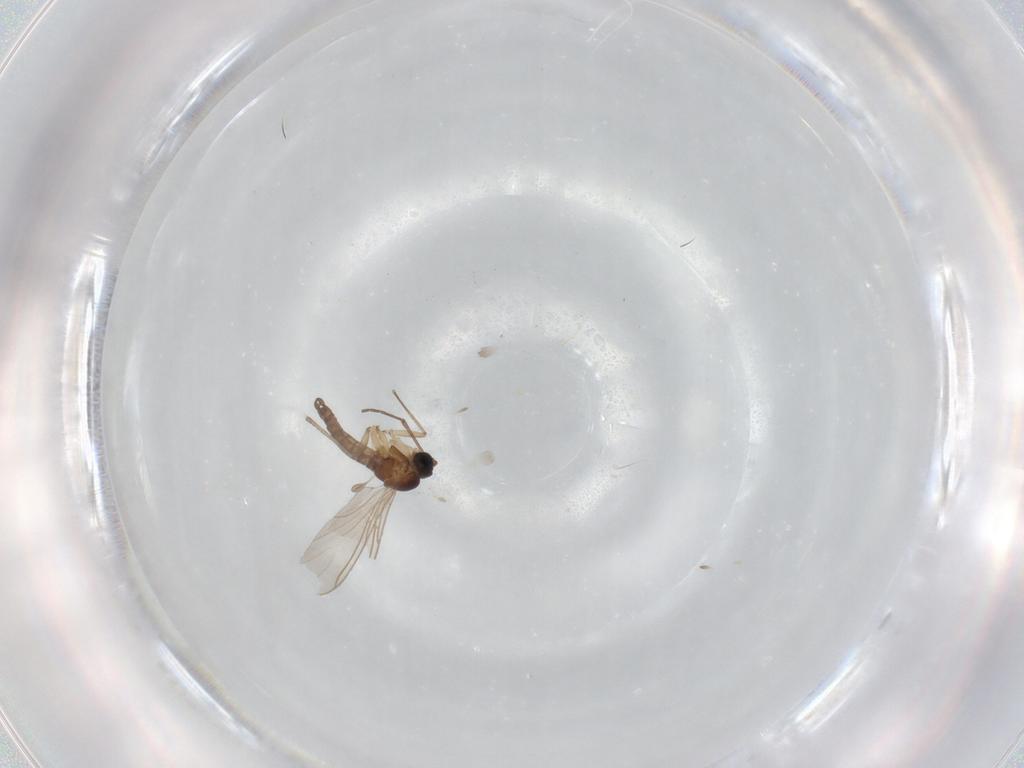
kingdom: Animalia
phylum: Arthropoda
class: Insecta
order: Diptera
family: Sciaridae
